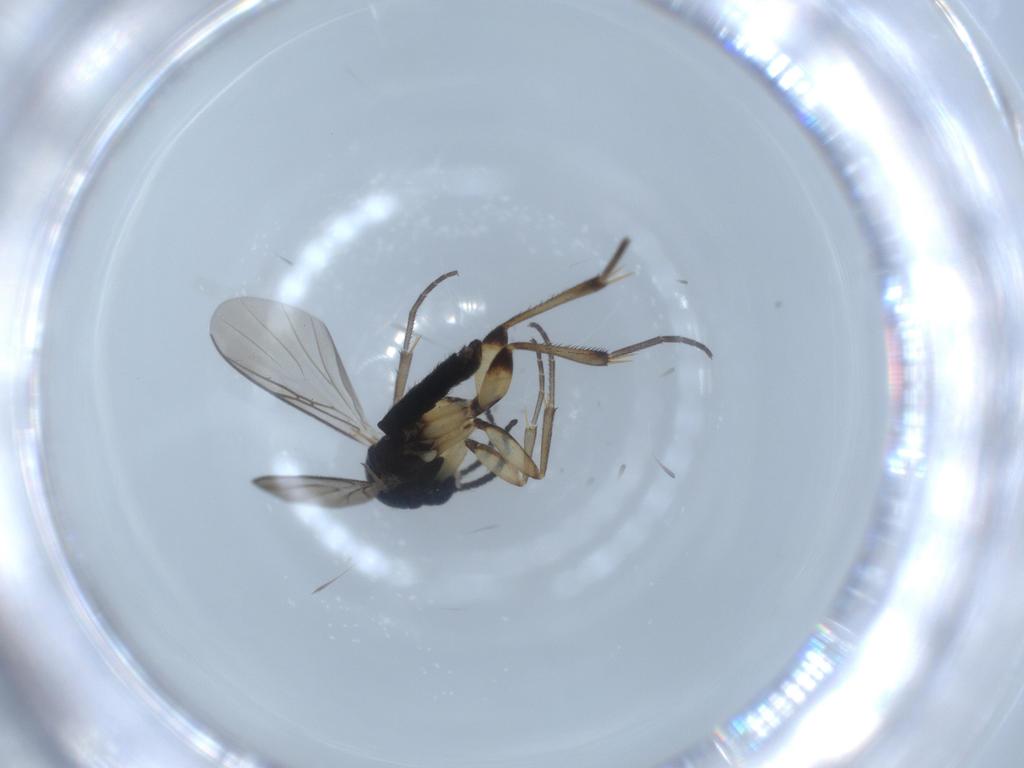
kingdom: Animalia
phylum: Arthropoda
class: Insecta
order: Diptera
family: Mycetophilidae
